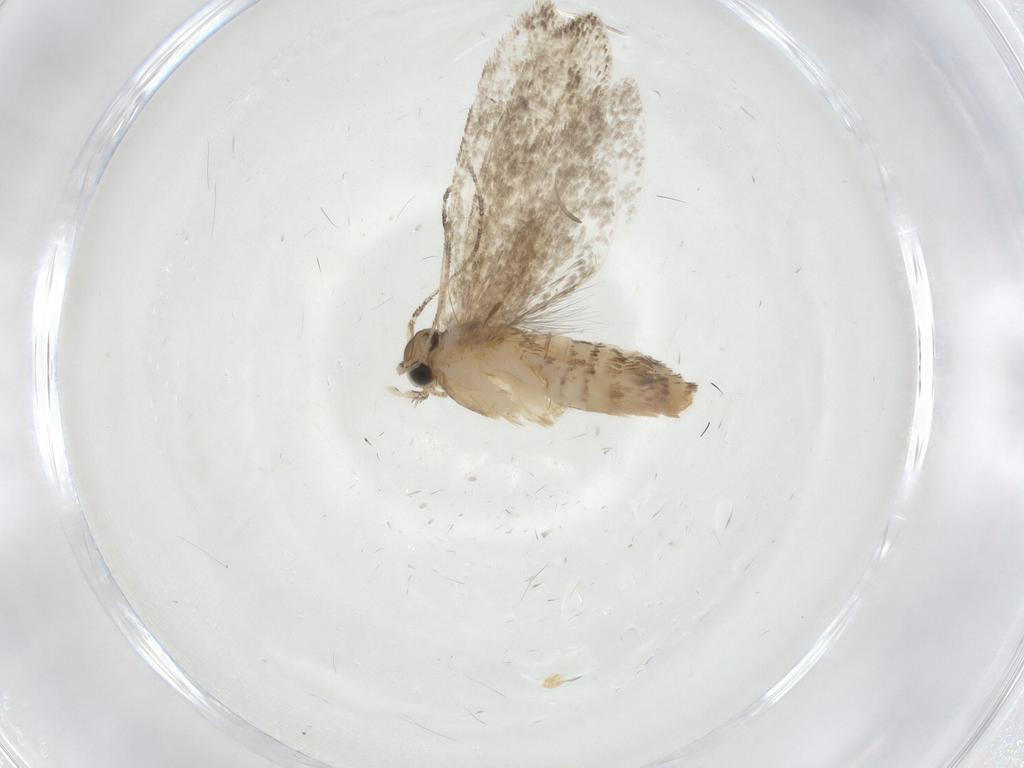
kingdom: Animalia
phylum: Arthropoda
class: Insecta
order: Lepidoptera
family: Tineidae
